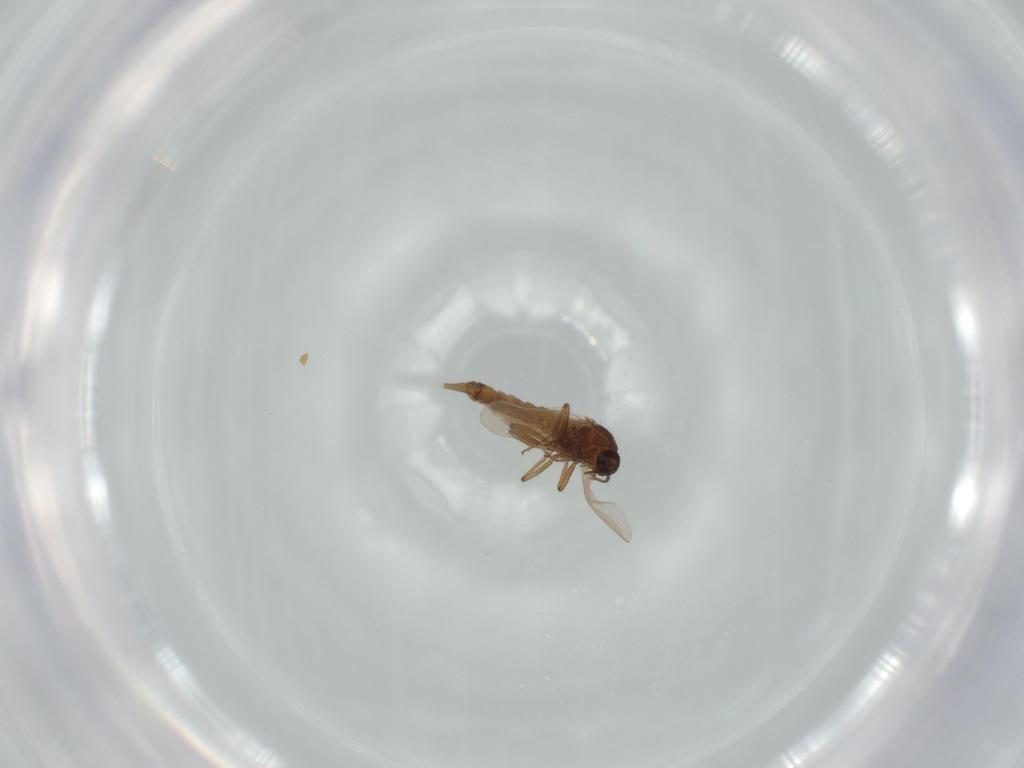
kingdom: Animalia
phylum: Arthropoda
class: Insecta
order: Diptera
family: Ceratopogonidae
